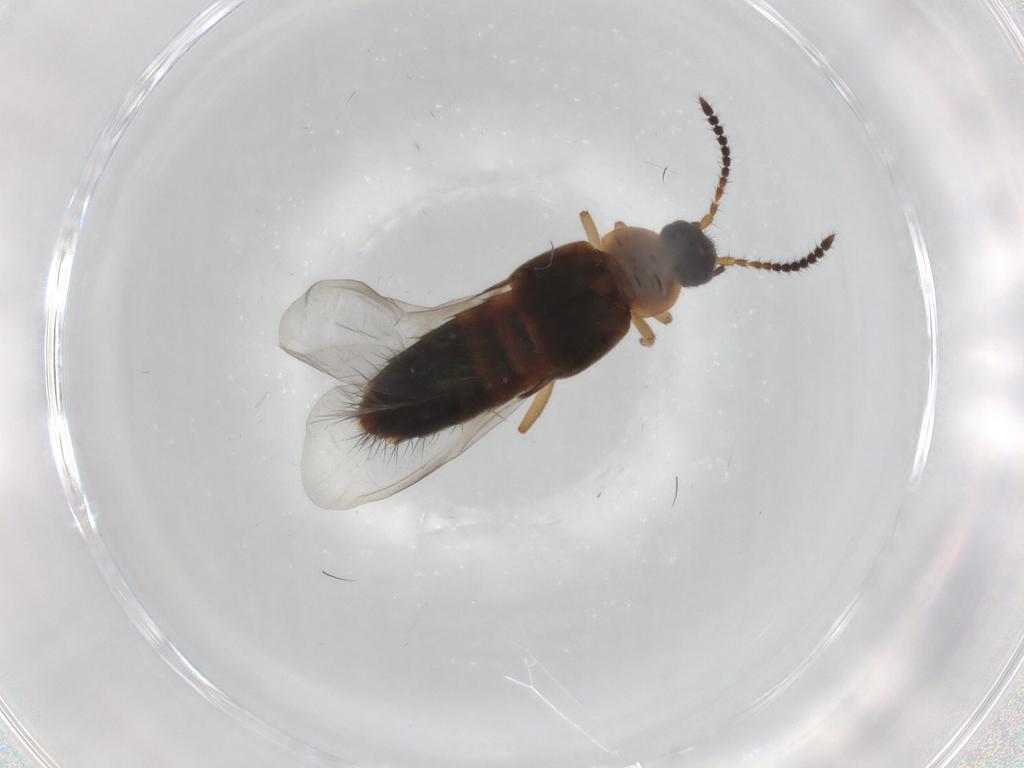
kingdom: Animalia
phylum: Arthropoda
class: Insecta
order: Coleoptera
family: Staphylinidae
